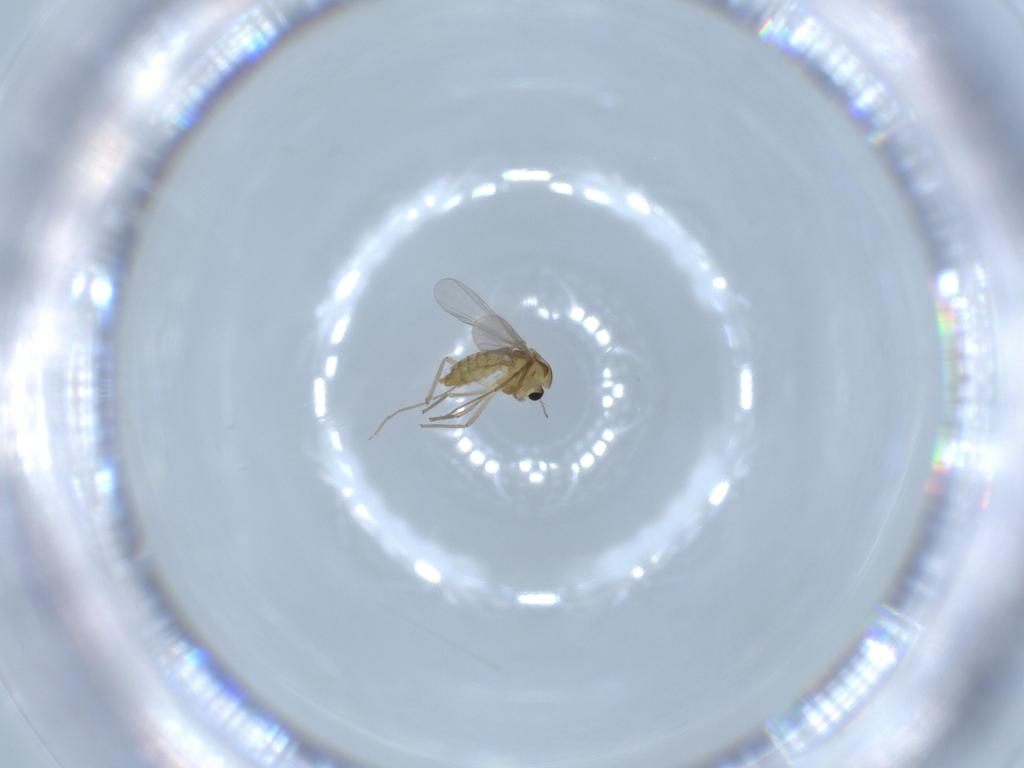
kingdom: Animalia
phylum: Arthropoda
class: Insecta
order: Diptera
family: Chironomidae
